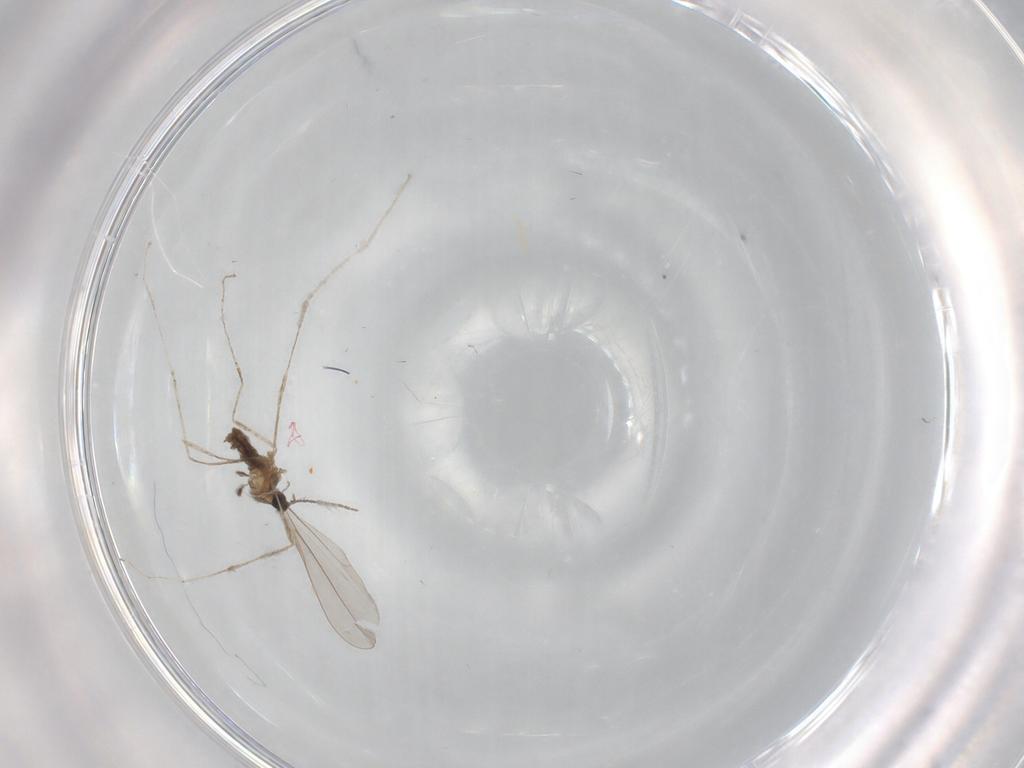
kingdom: Animalia
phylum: Arthropoda
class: Insecta
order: Diptera
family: Cecidomyiidae
